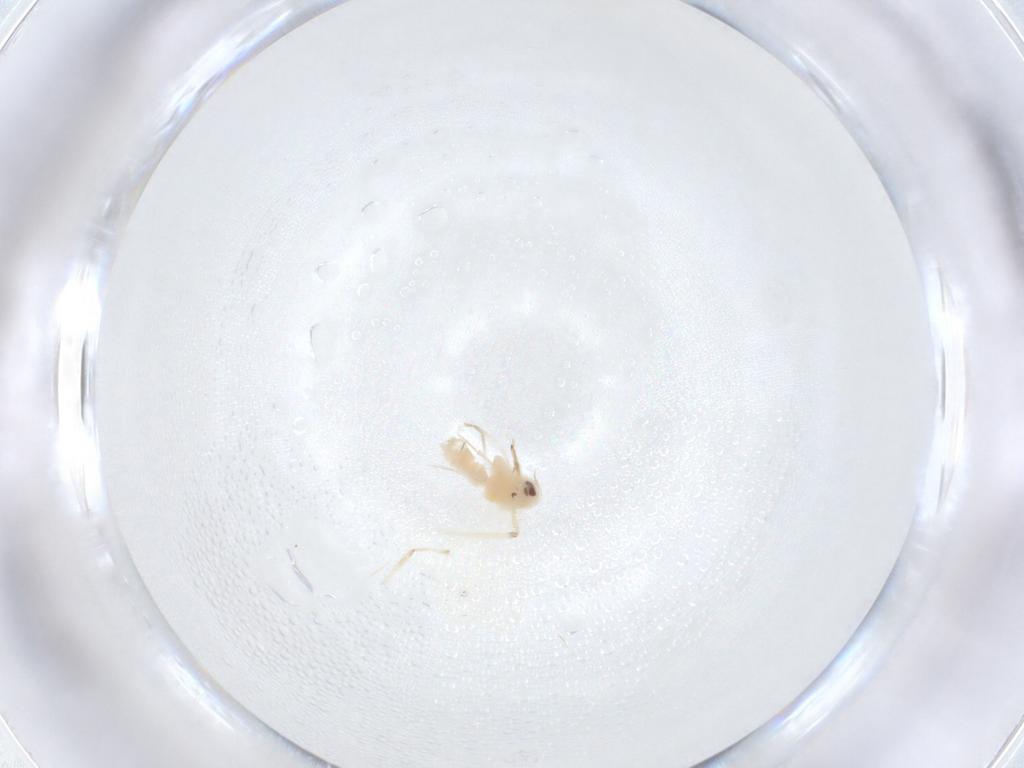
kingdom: Animalia
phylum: Arthropoda
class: Insecta
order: Hemiptera
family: Aleyrodidae
